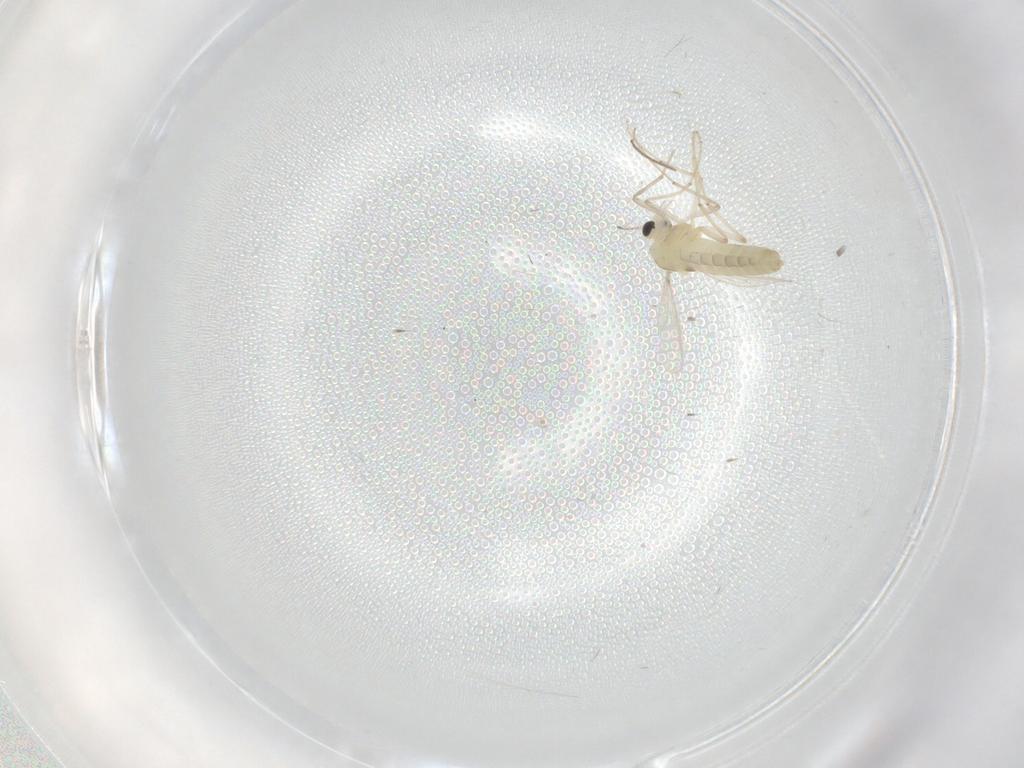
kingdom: Animalia
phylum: Arthropoda
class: Insecta
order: Diptera
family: Chironomidae
